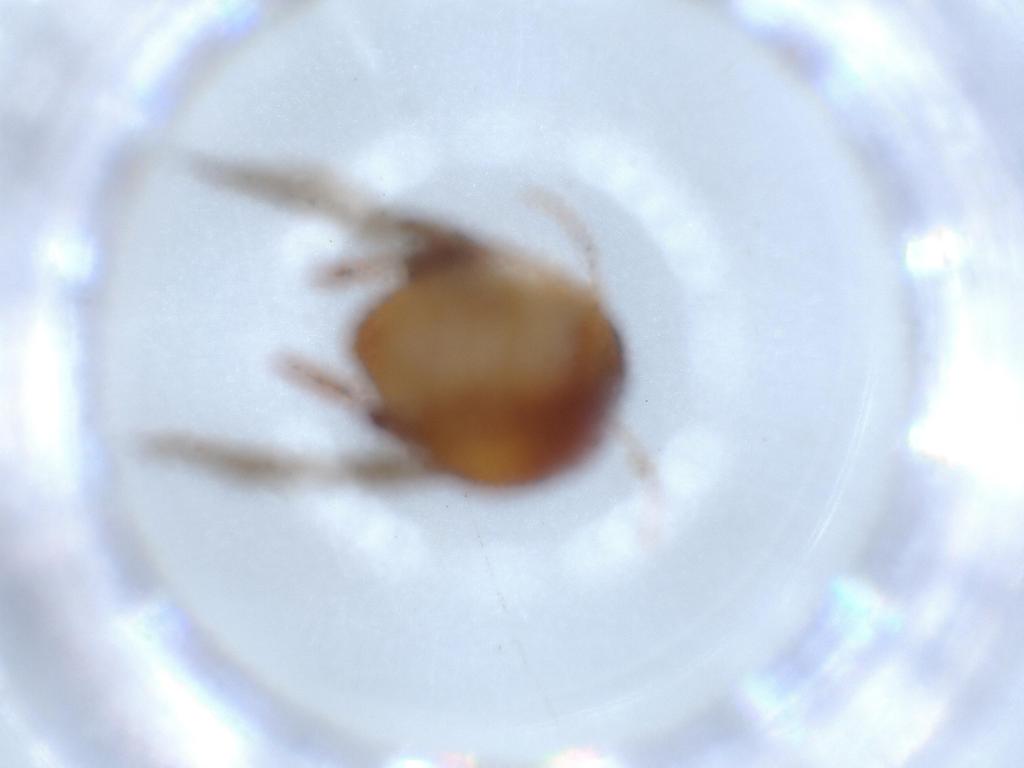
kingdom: Animalia
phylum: Arthropoda
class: Insecta
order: Coleoptera
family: Chrysomelidae
